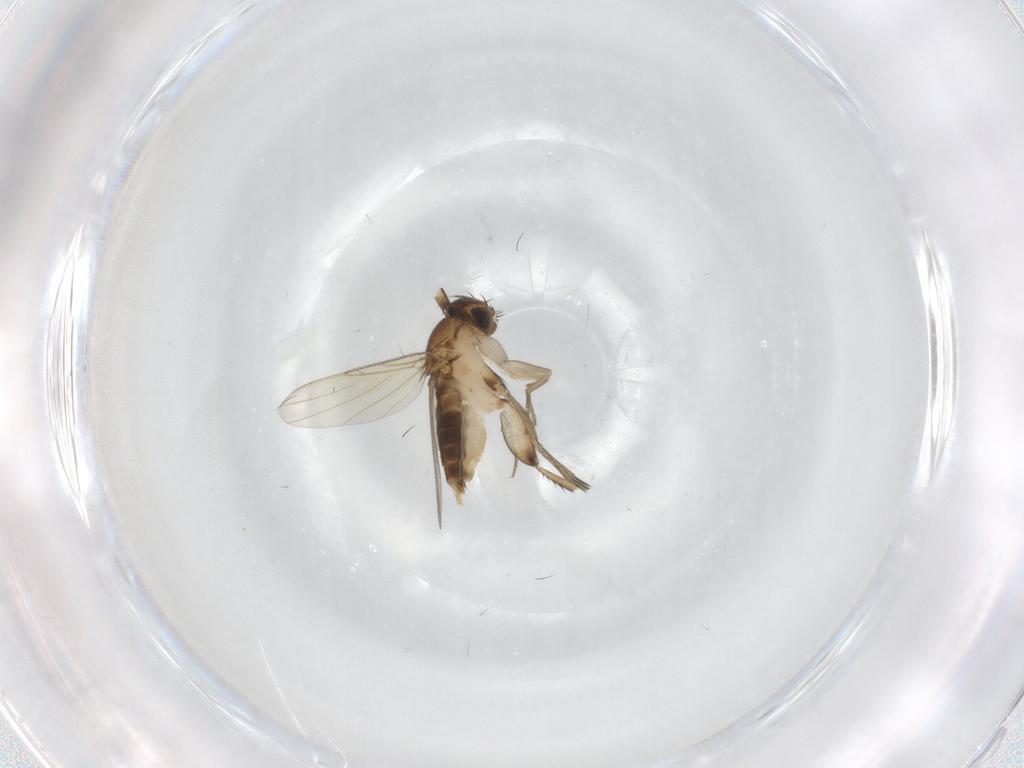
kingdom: Animalia
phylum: Arthropoda
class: Insecta
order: Diptera
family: Phoridae
